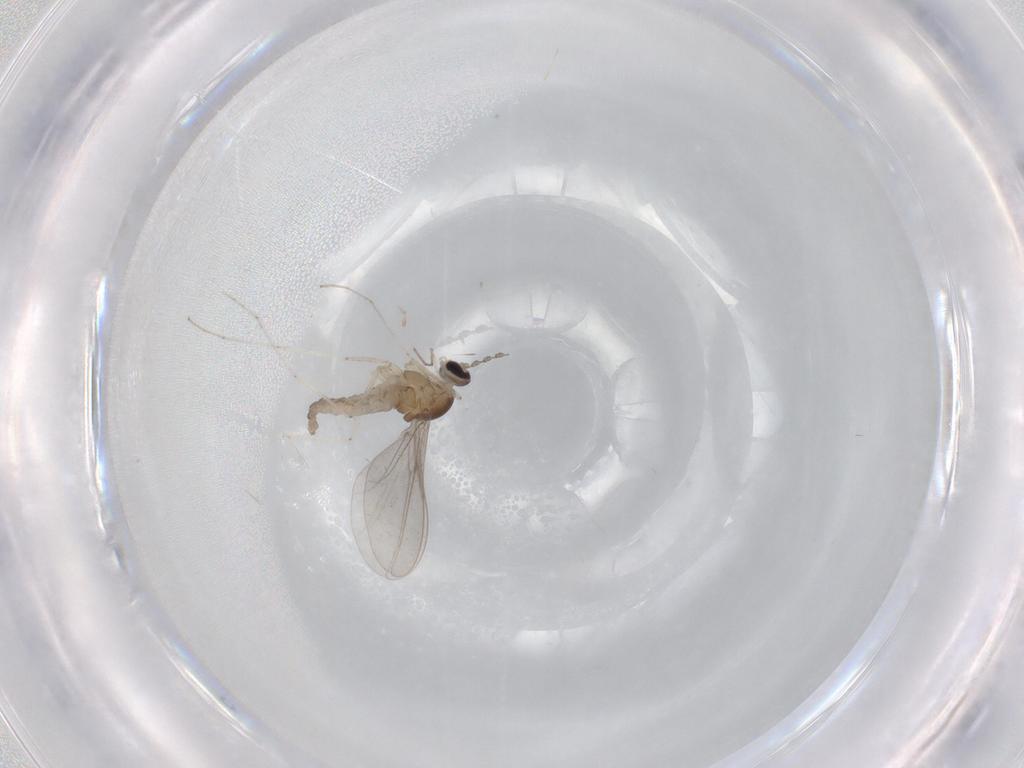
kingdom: Animalia
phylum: Arthropoda
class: Insecta
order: Diptera
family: Cecidomyiidae
